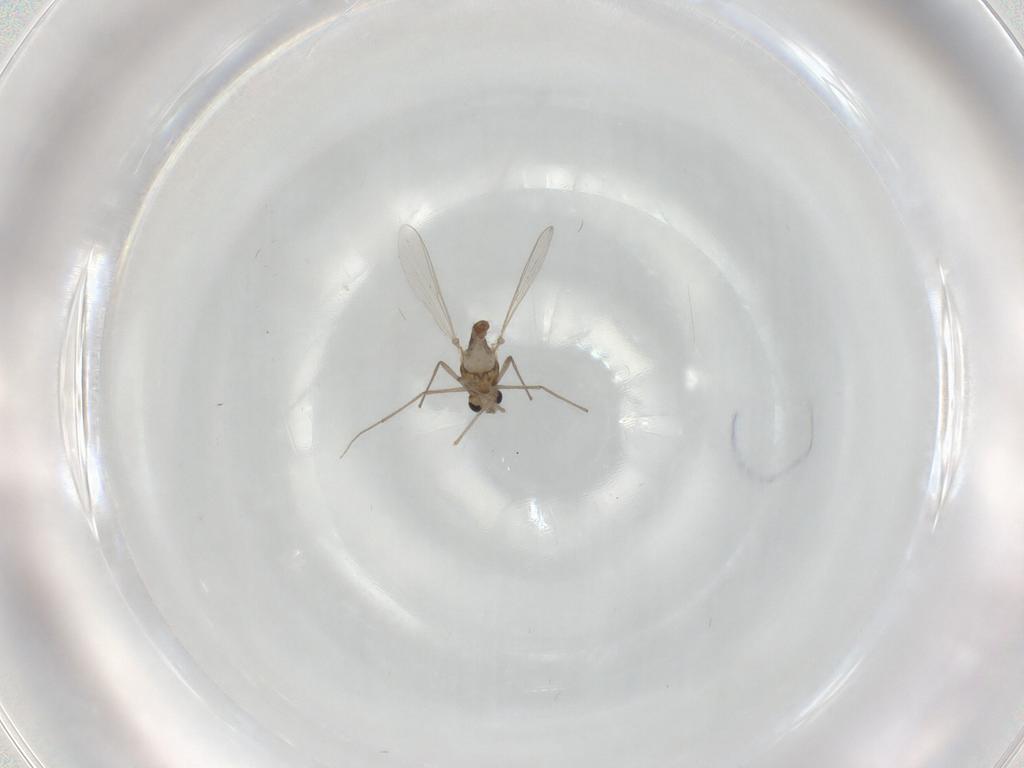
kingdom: Animalia
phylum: Arthropoda
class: Insecta
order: Diptera
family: Chironomidae
